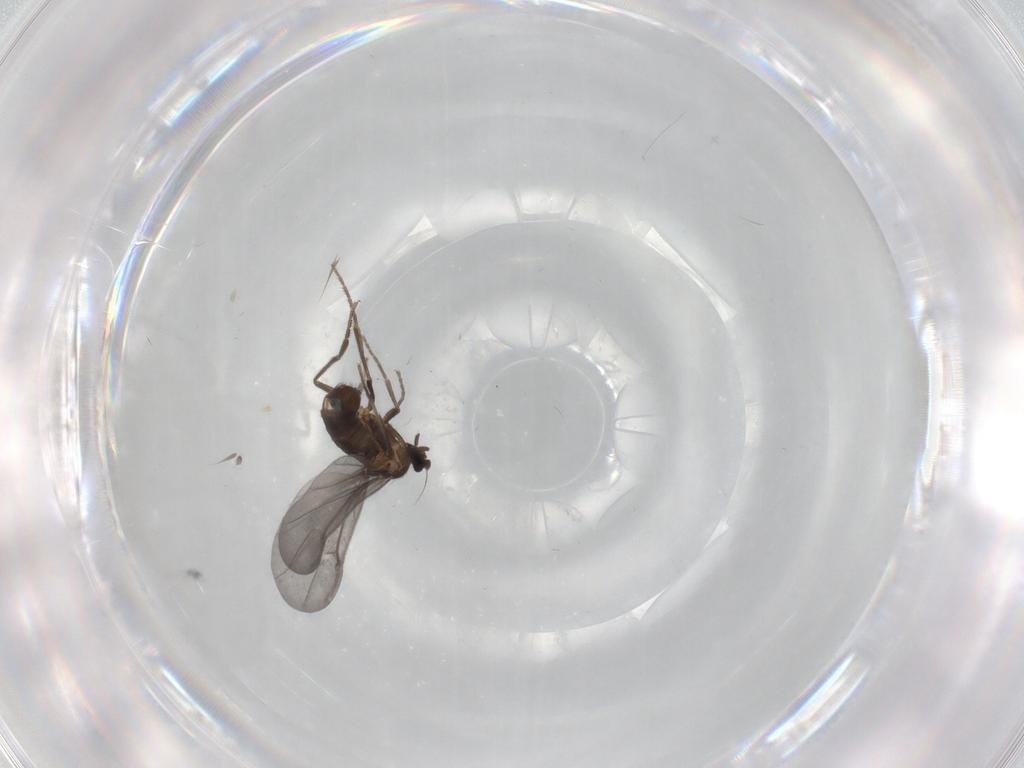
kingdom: Animalia
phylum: Arthropoda
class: Insecta
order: Diptera
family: Phoridae
